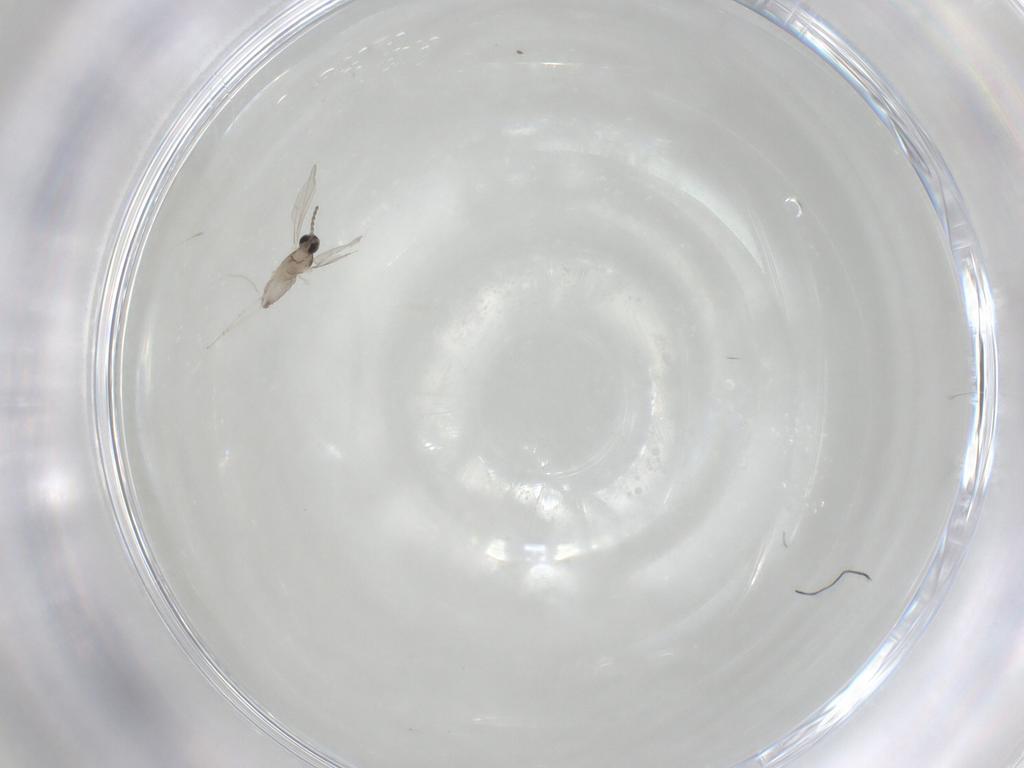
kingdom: Animalia
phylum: Arthropoda
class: Insecta
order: Diptera
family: Cecidomyiidae
